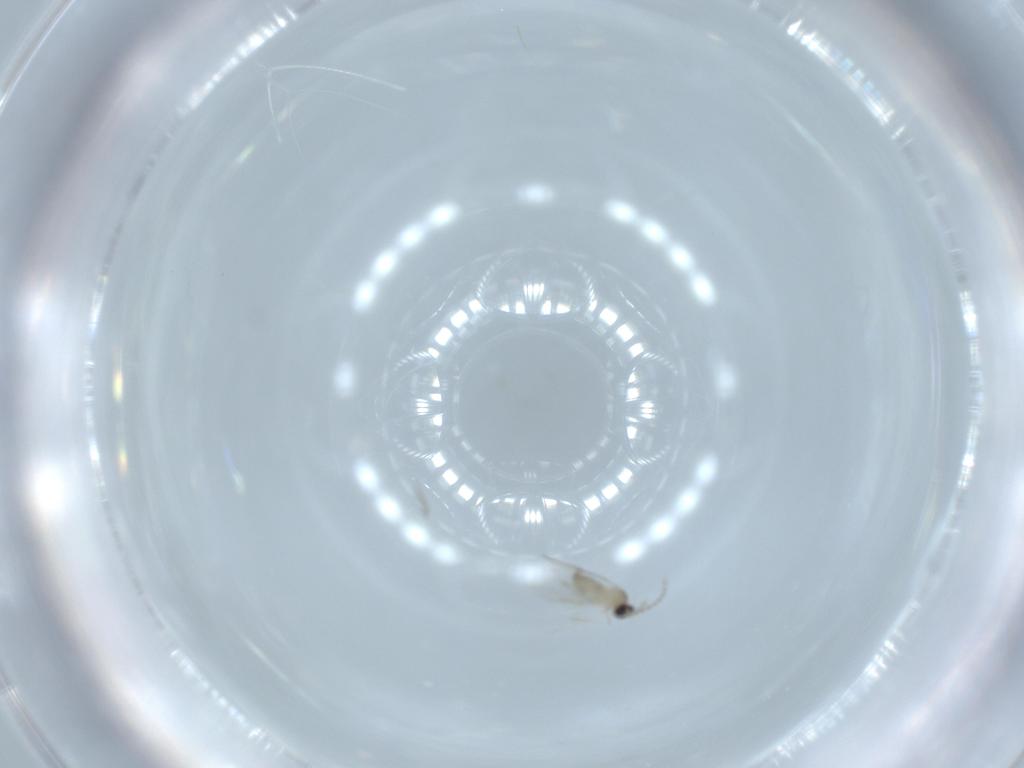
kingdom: Animalia
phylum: Arthropoda
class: Insecta
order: Diptera
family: Cecidomyiidae
